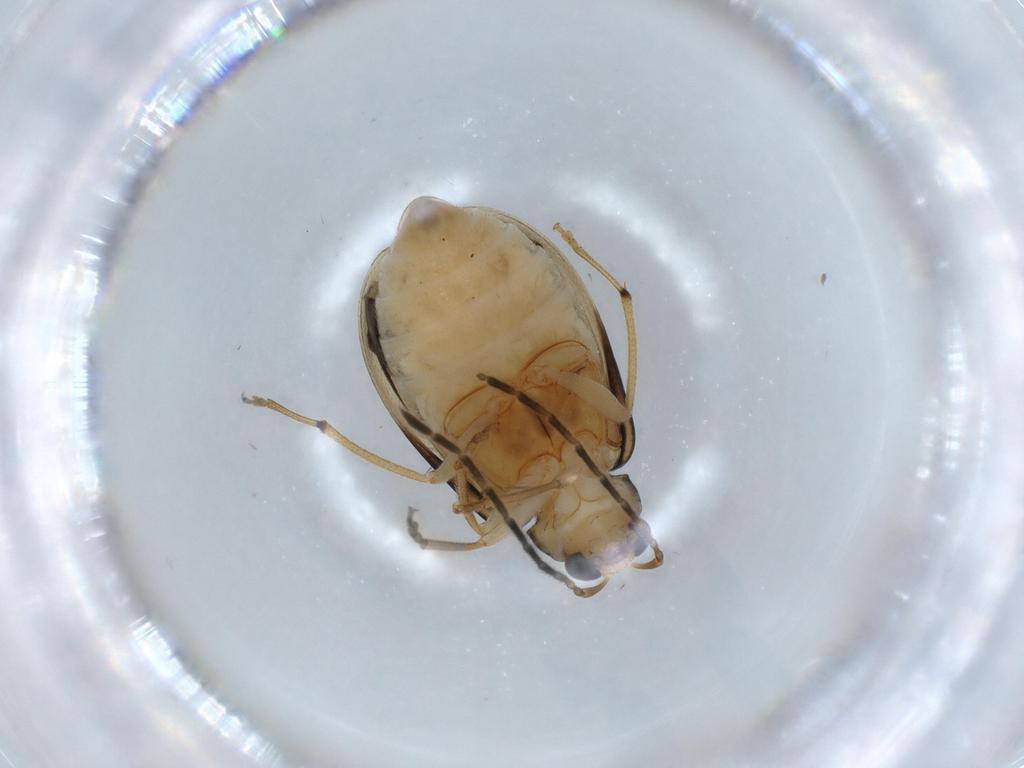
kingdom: Animalia
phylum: Arthropoda
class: Insecta
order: Coleoptera
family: Chrysomelidae
